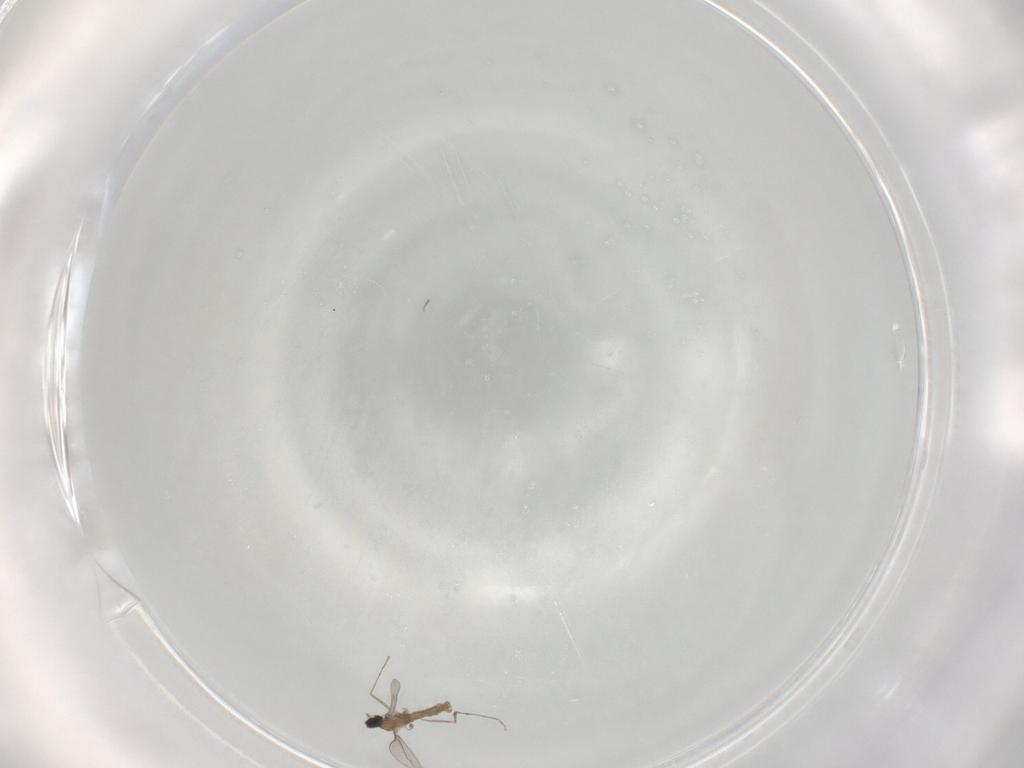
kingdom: Animalia
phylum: Arthropoda
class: Insecta
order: Diptera
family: Cecidomyiidae
